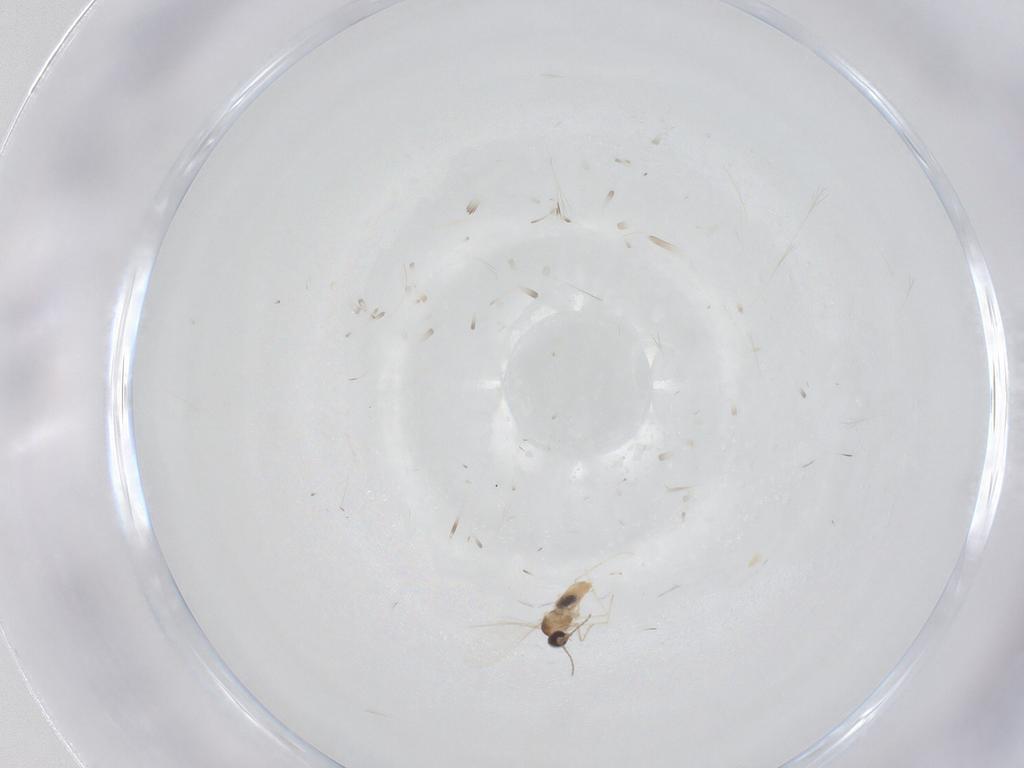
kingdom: Animalia
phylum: Arthropoda
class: Insecta
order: Diptera
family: Cecidomyiidae
